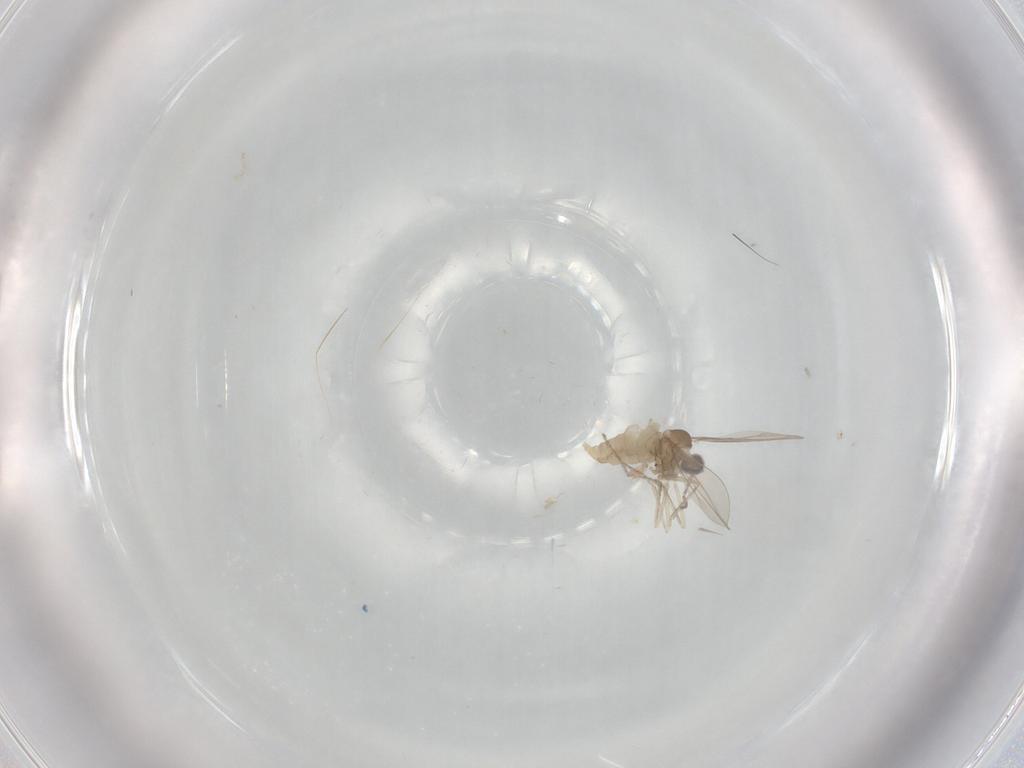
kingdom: Animalia
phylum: Arthropoda
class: Insecta
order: Diptera
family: Cecidomyiidae
